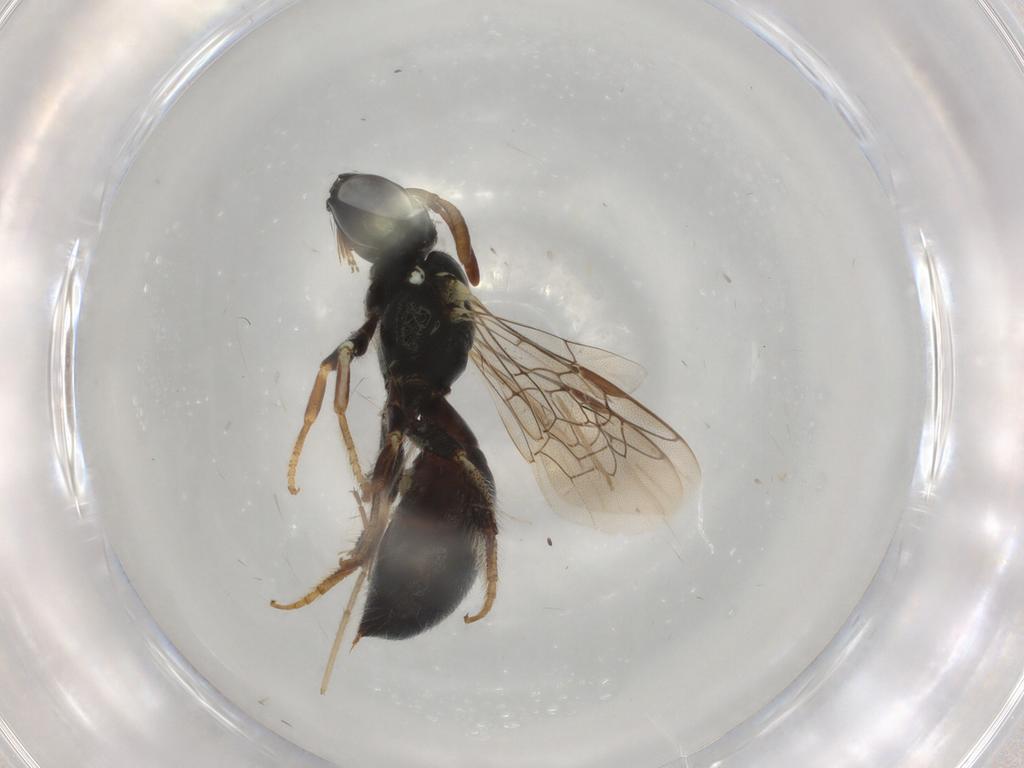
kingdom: Animalia
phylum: Arthropoda
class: Insecta
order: Hymenoptera
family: Apidae
